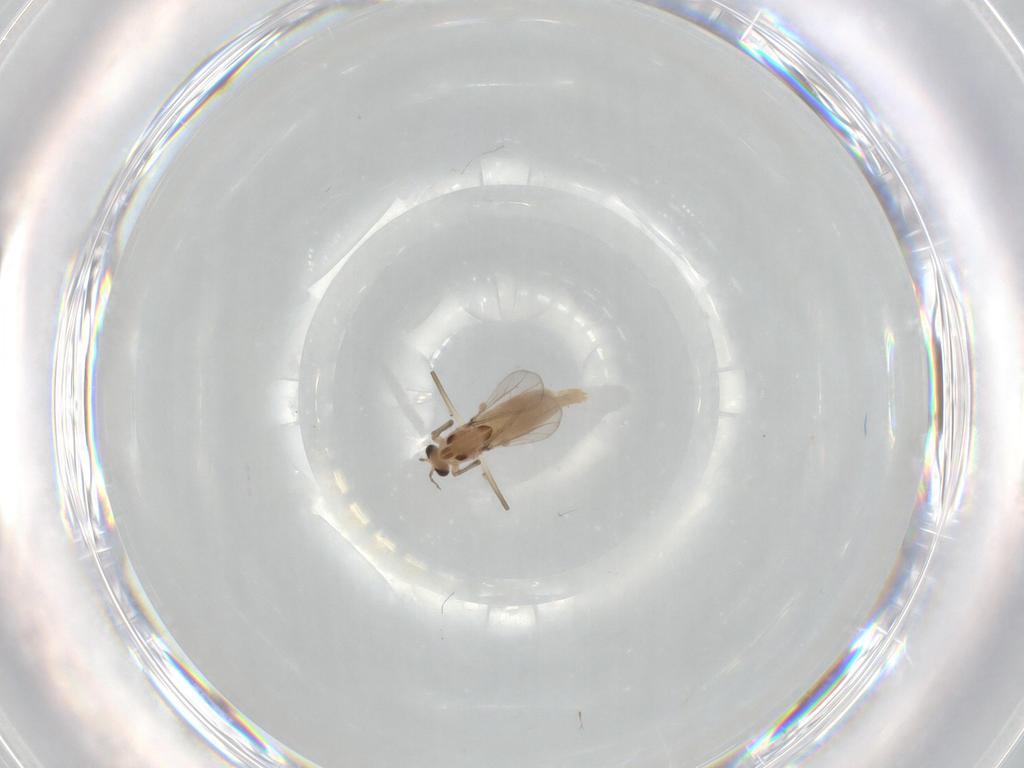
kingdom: Animalia
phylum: Arthropoda
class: Insecta
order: Diptera
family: Chironomidae
